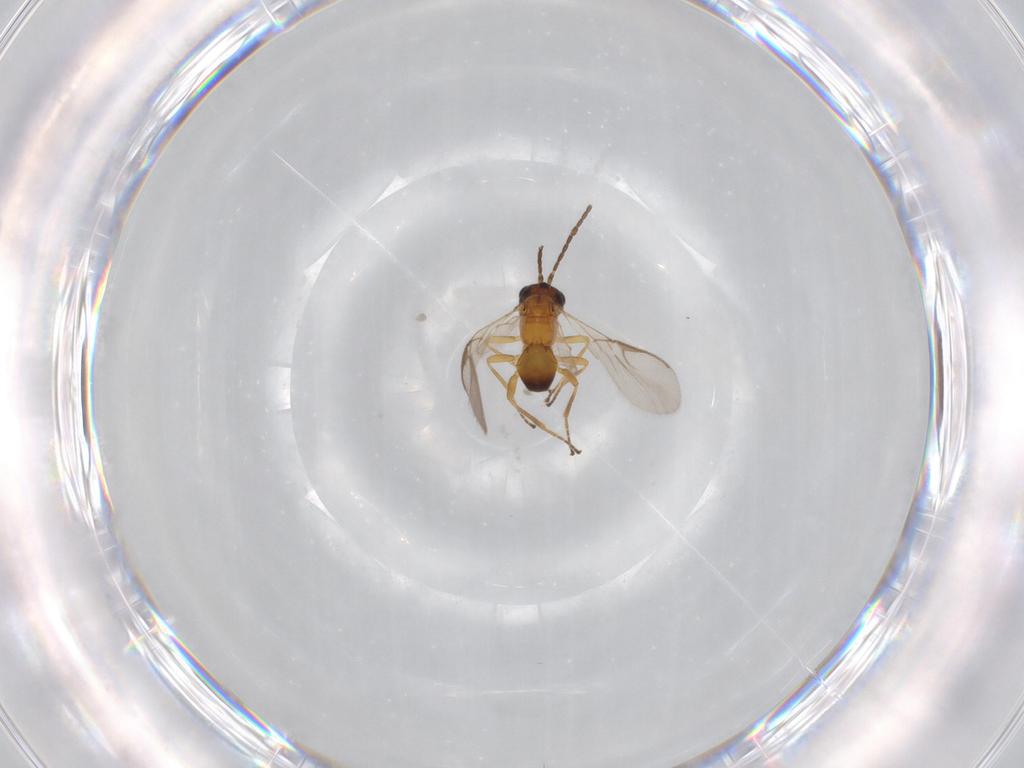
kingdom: Animalia
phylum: Arthropoda
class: Insecta
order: Hymenoptera
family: Braconidae
